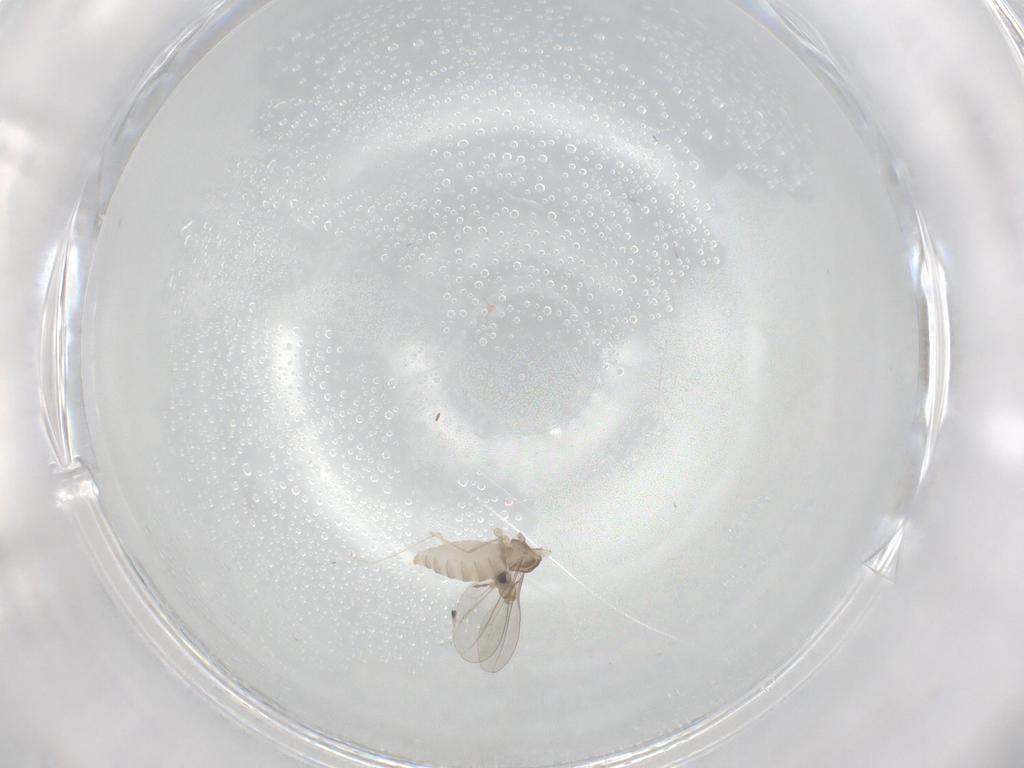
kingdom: Animalia
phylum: Arthropoda
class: Insecta
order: Diptera
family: Cecidomyiidae
